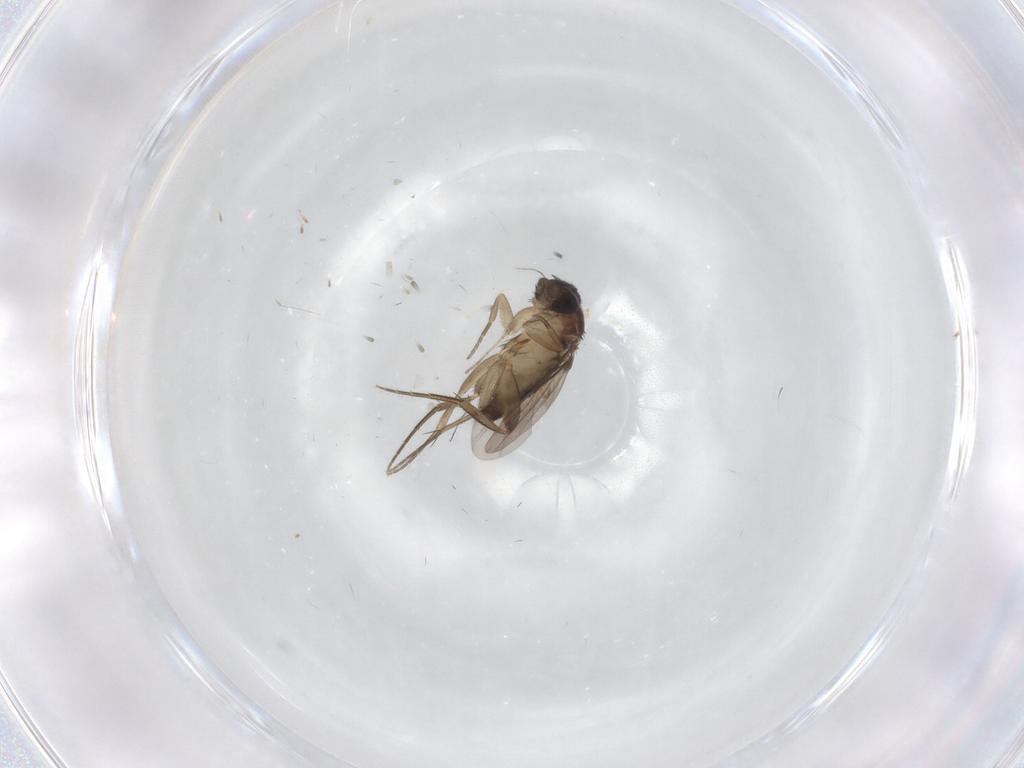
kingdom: Animalia
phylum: Arthropoda
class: Insecta
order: Diptera
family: Phoridae
